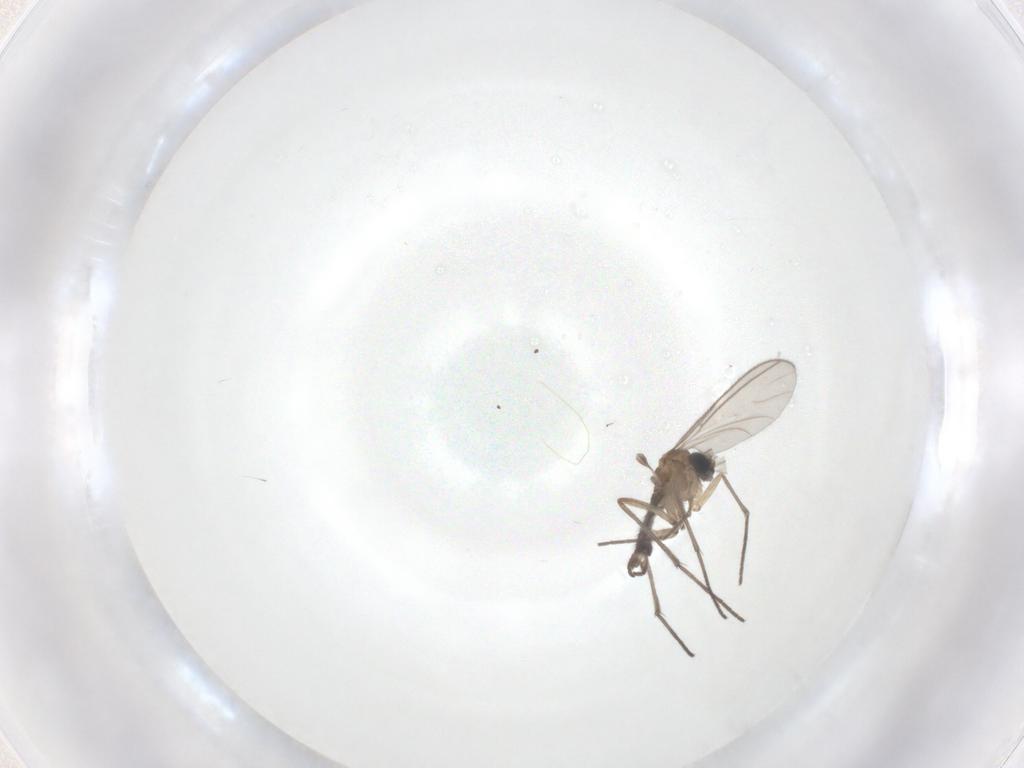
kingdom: Animalia
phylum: Arthropoda
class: Insecta
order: Diptera
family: Sciaridae
